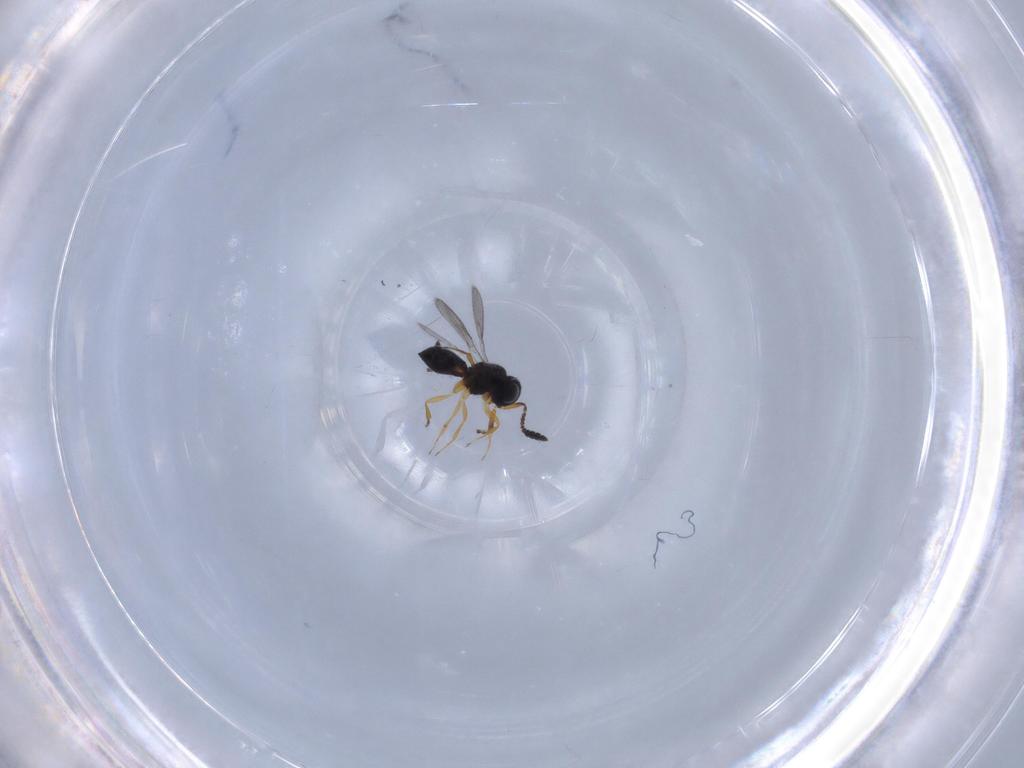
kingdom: Animalia
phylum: Arthropoda
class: Insecta
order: Hymenoptera
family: Scelionidae
